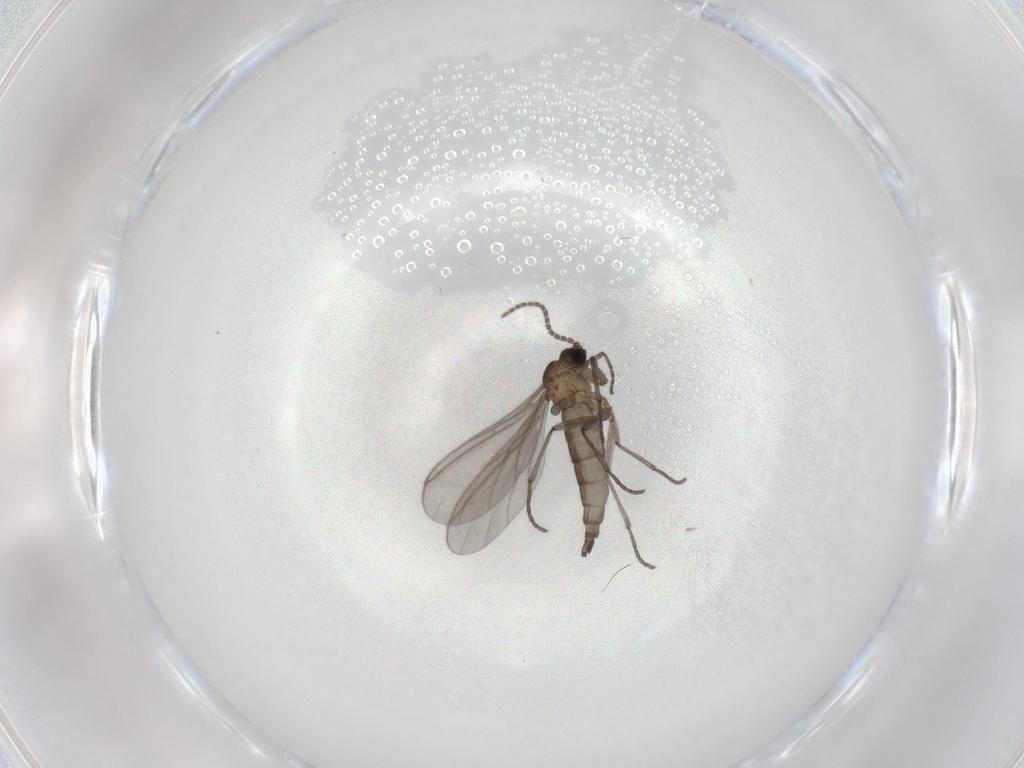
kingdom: Animalia
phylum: Arthropoda
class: Insecta
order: Diptera
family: Sciaridae
